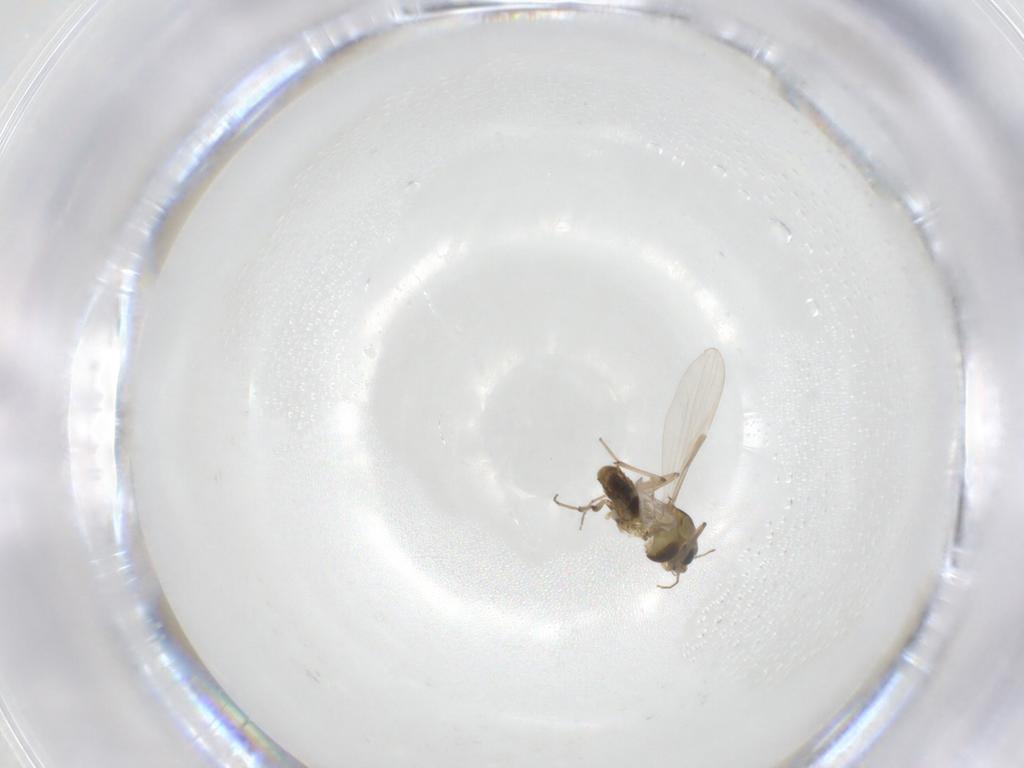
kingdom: Animalia
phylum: Arthropoda
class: Insecta
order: Diptera
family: Chironomidae
